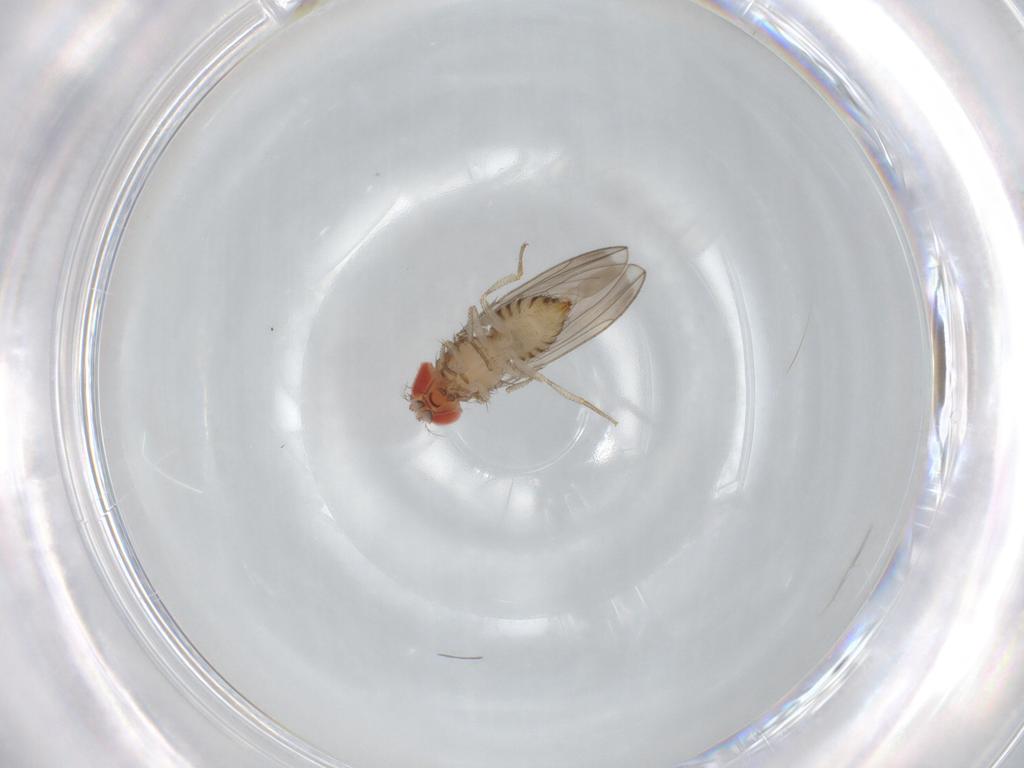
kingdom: Animalia
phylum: Arthropoda
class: Insecta
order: Diptera
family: Drosophilidae
